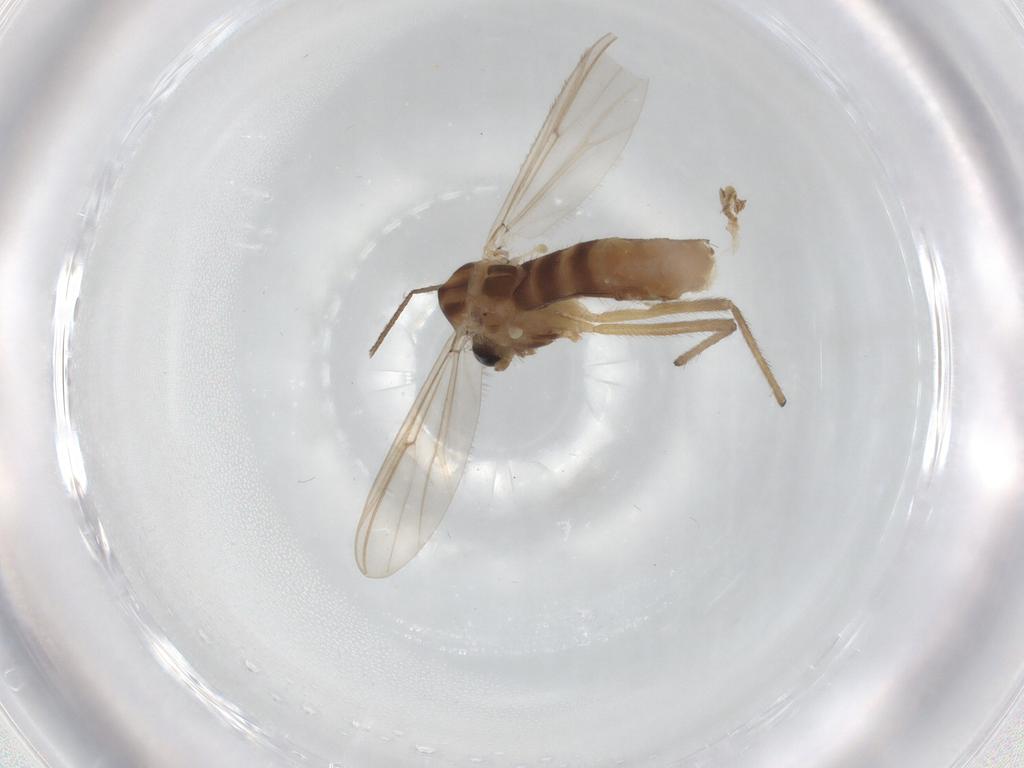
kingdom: Animalia
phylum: Arthropoda
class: Insecta
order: Diptera
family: Chironomidae
